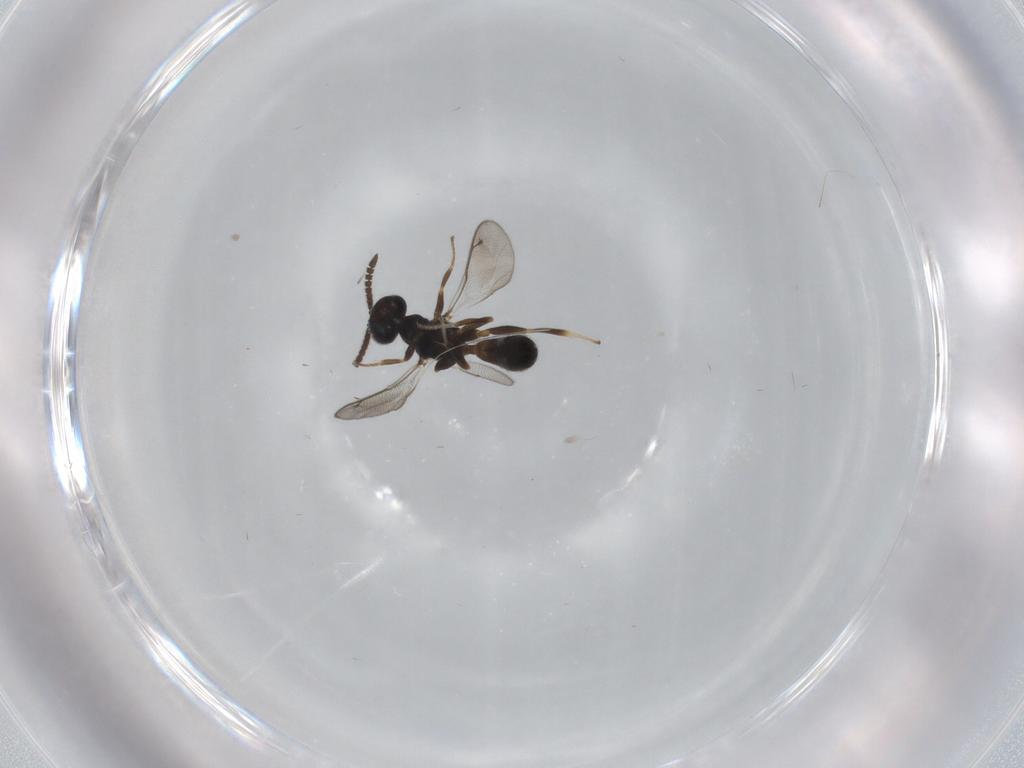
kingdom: Animalia
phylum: Arthropoda
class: Insecta
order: Hymenoptera
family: Cleonyminae
